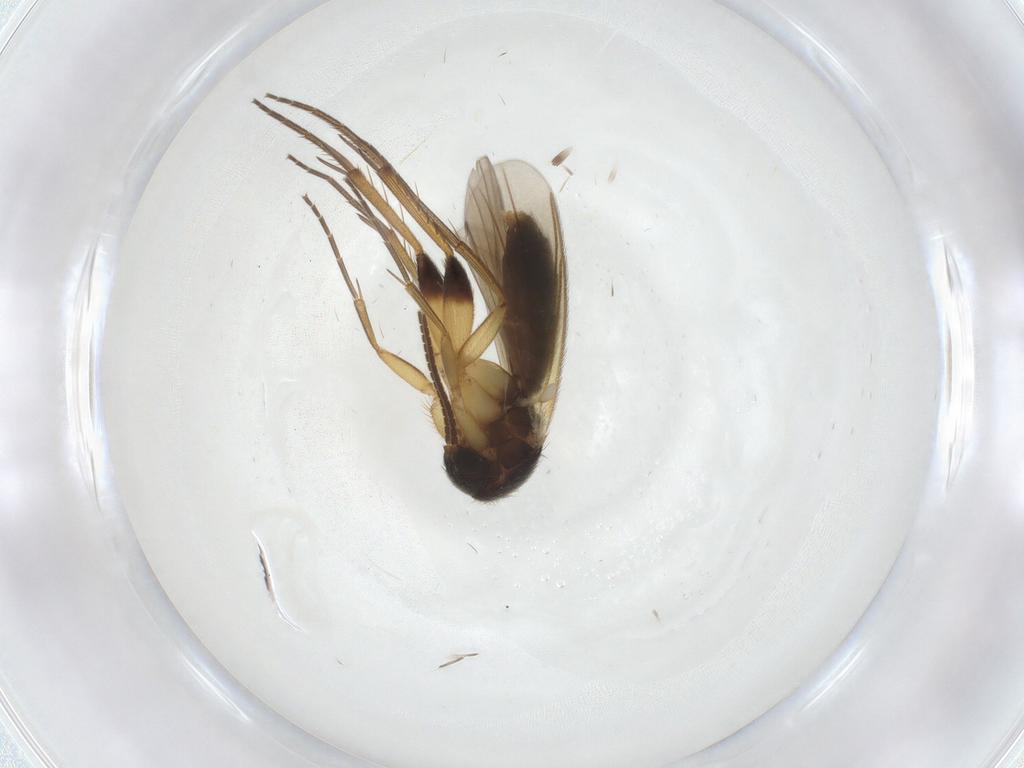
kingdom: Animalia
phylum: Arthropoda
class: Insecta
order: Diptera
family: Mycetophilidae
